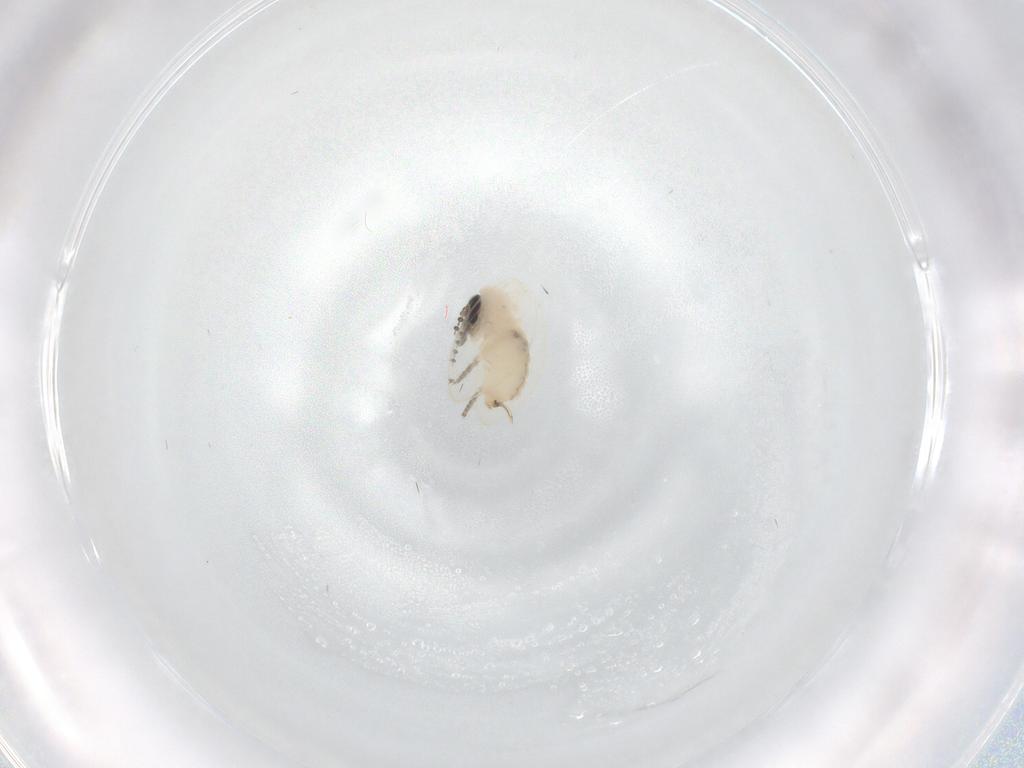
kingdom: Animalia
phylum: Arthropoda
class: Insecta
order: Diptera
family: Psychodidae
